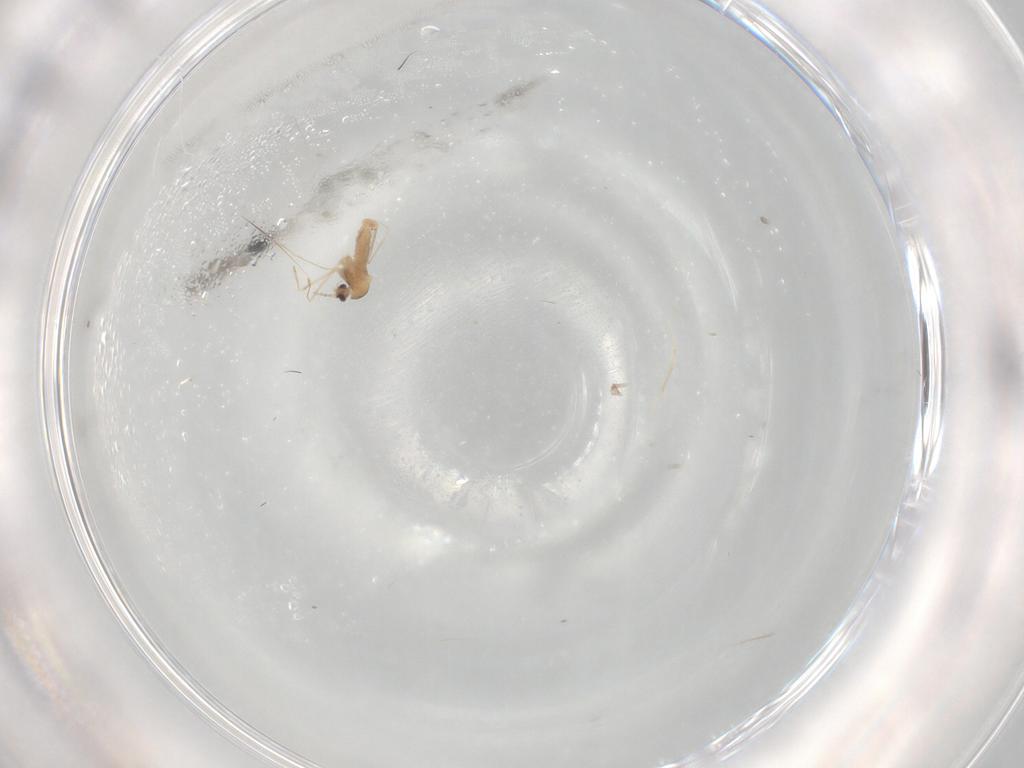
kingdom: Animalia
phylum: Arthropoda
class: Insecta
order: Diptera
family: Cecidomyiidae
